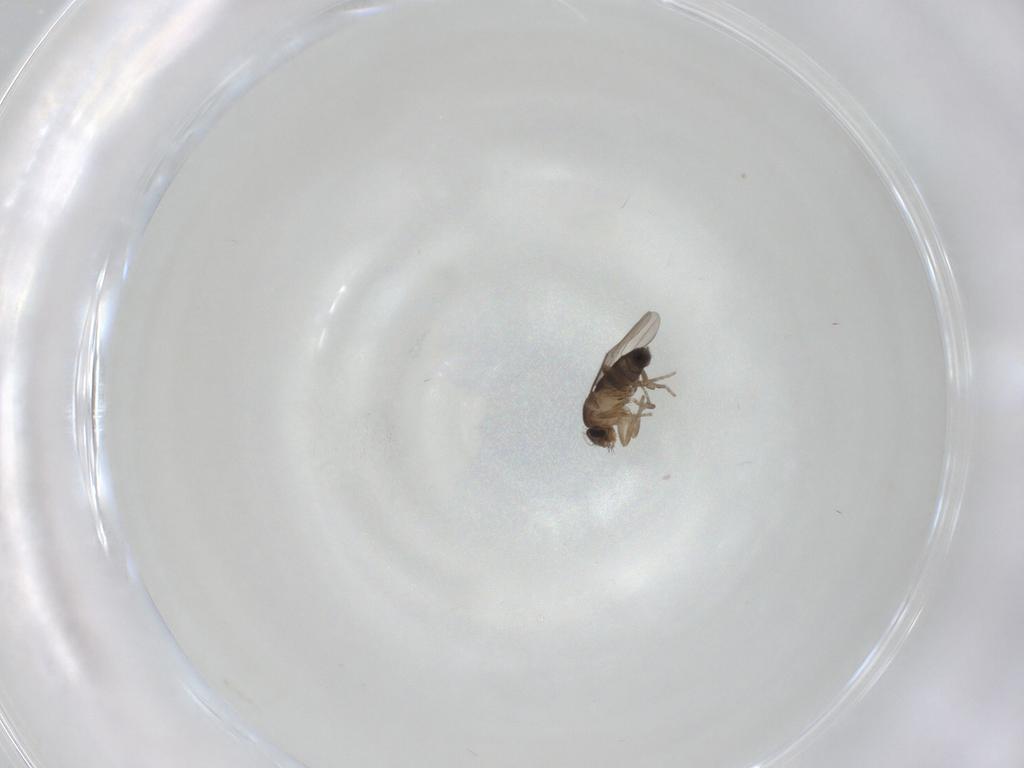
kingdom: Animalia
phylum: Arthropoda
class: Insecta
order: Diptera
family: Phoridae
